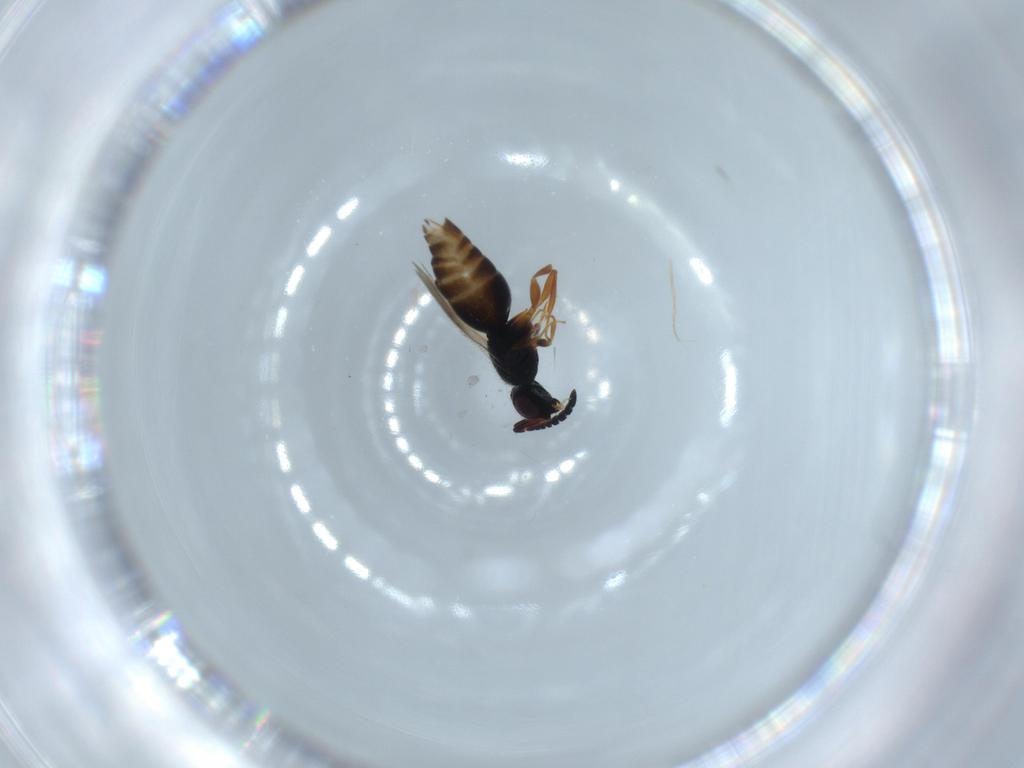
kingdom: Animalia
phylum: Arthropoda
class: Insecta
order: Hymenoptera
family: Scelionidae
